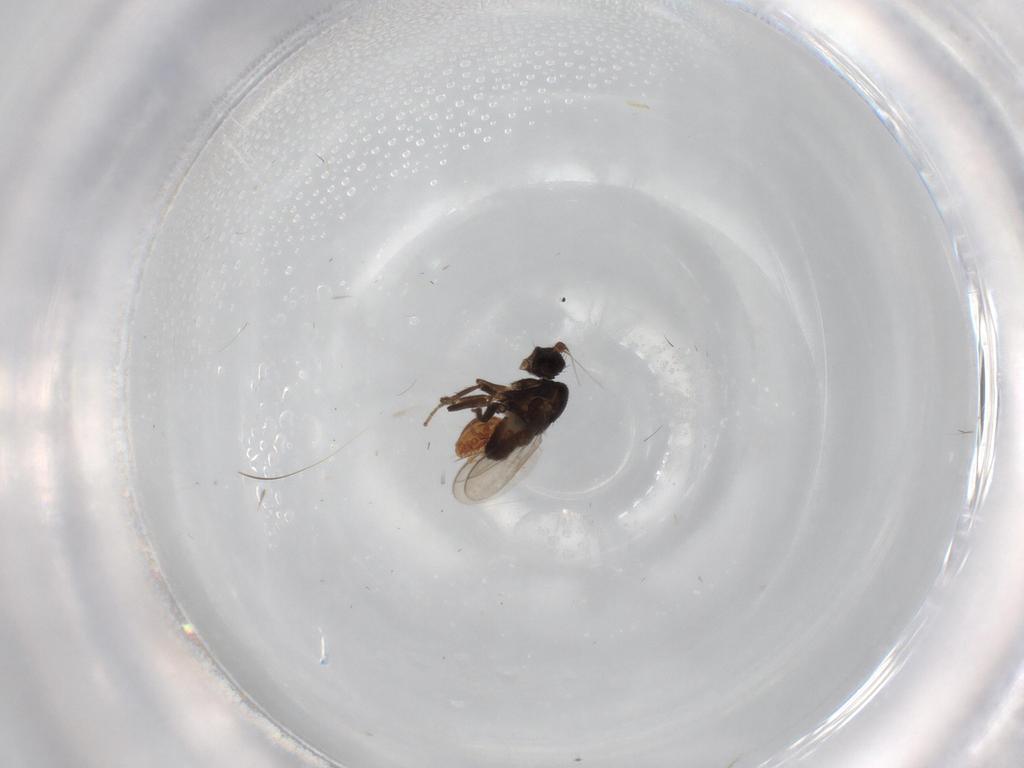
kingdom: Animalia
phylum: Arthropoda
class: Insecta
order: Diptera
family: Sphaeroceridae
